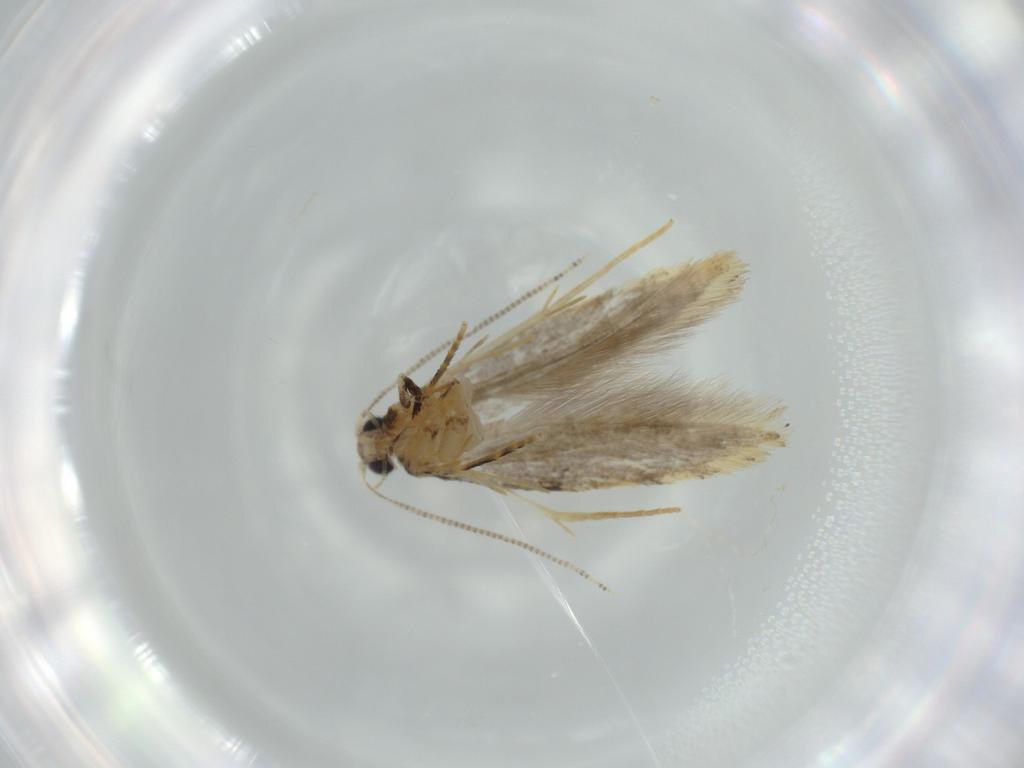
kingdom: Animalia
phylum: Arthropoda
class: Insecta
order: Lepidoptera
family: Tineidae
